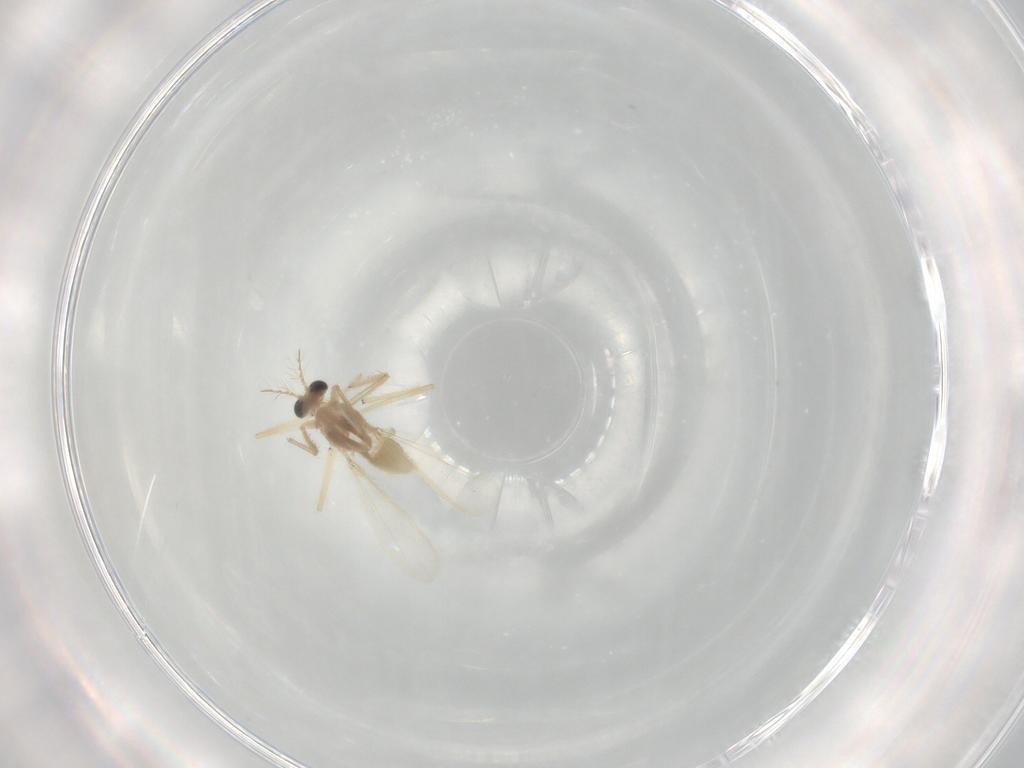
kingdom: Animalia
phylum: Arthropoda
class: Insecta
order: Diptera
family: Chironomidae
